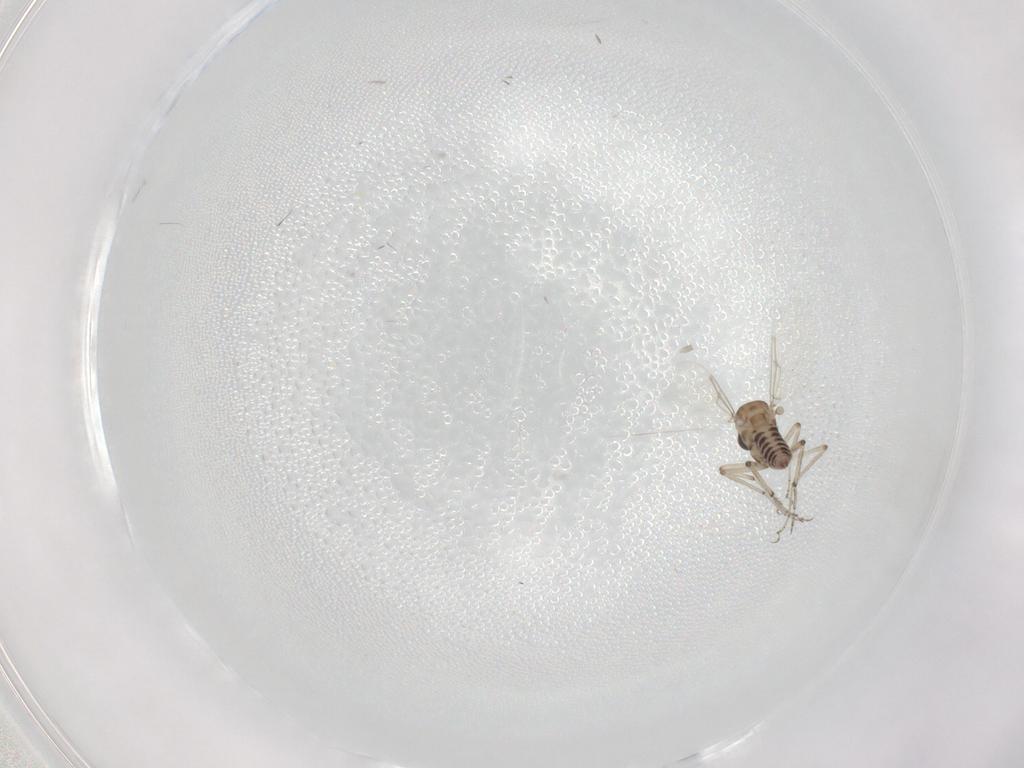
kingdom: Animalia
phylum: Arthropoda
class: Insecta
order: Diptera
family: Ceratopogonidae
